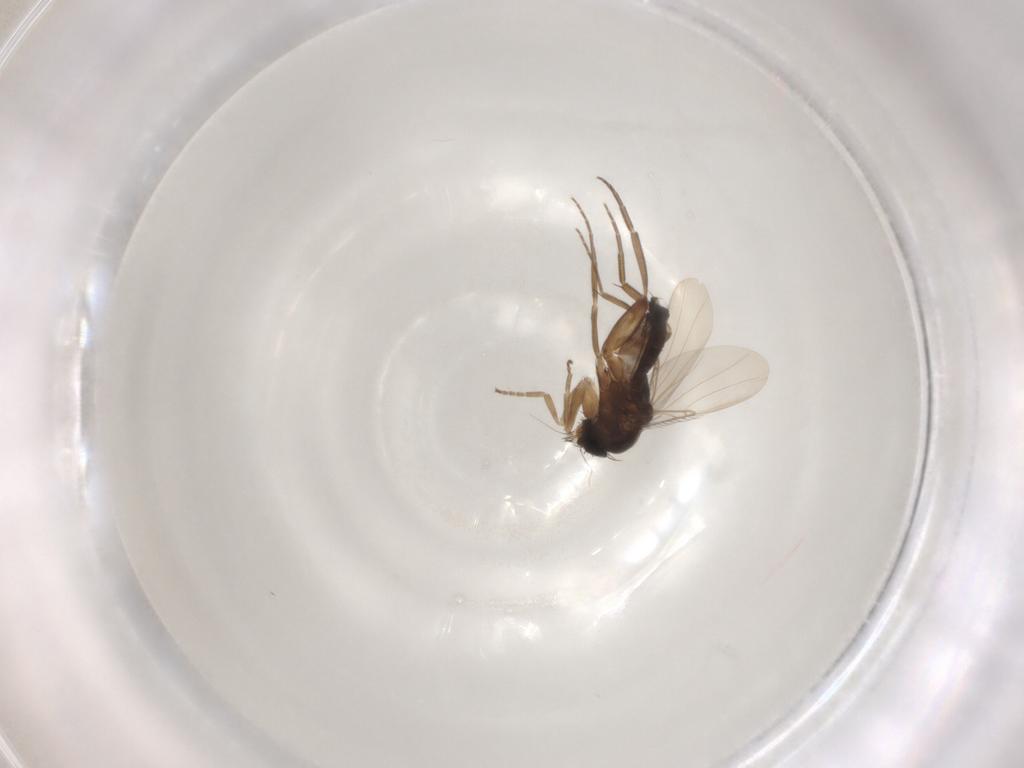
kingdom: Animalia
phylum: Arthropoda
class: Insecta
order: Diptera
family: Phoridae
